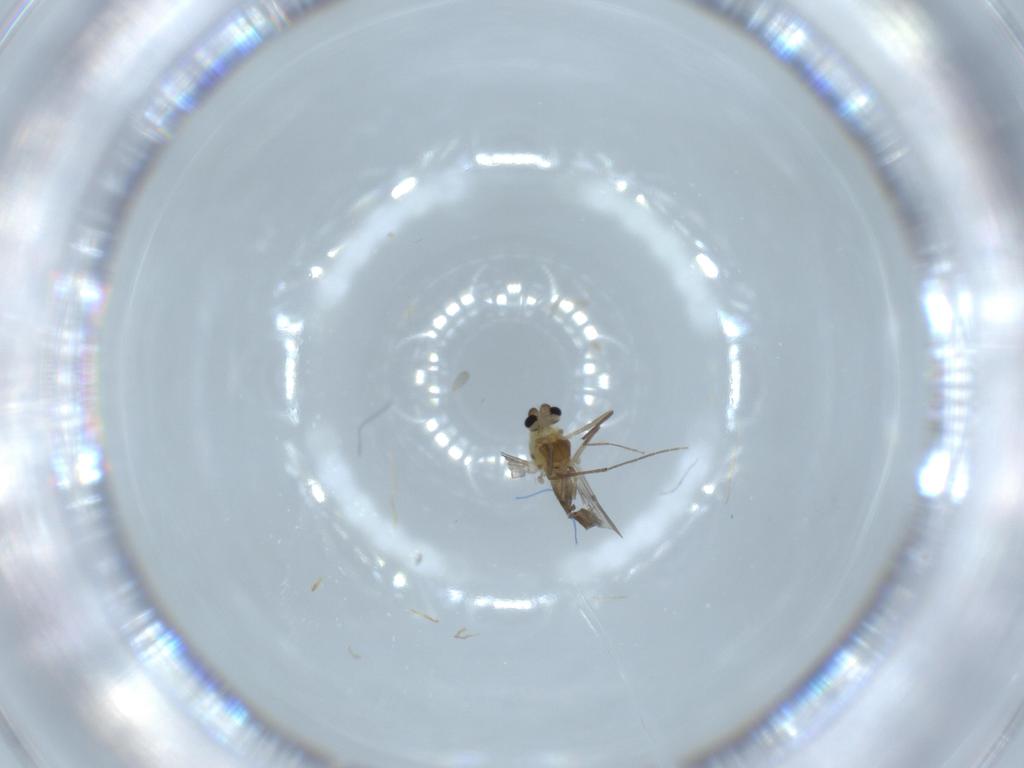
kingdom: Animalia
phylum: Arthropoda
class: Insecta
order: Diptera
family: Chironomidae
